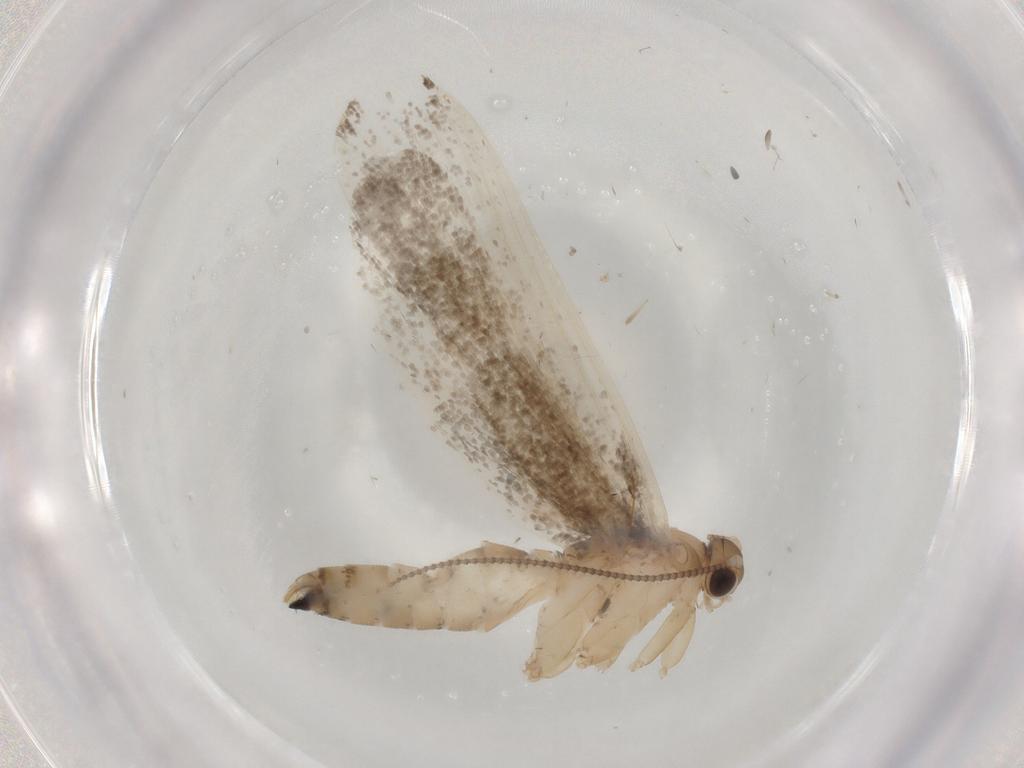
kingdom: Animalia
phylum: Arthropoda
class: Insecta
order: Lepidoptera
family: Tineidae
